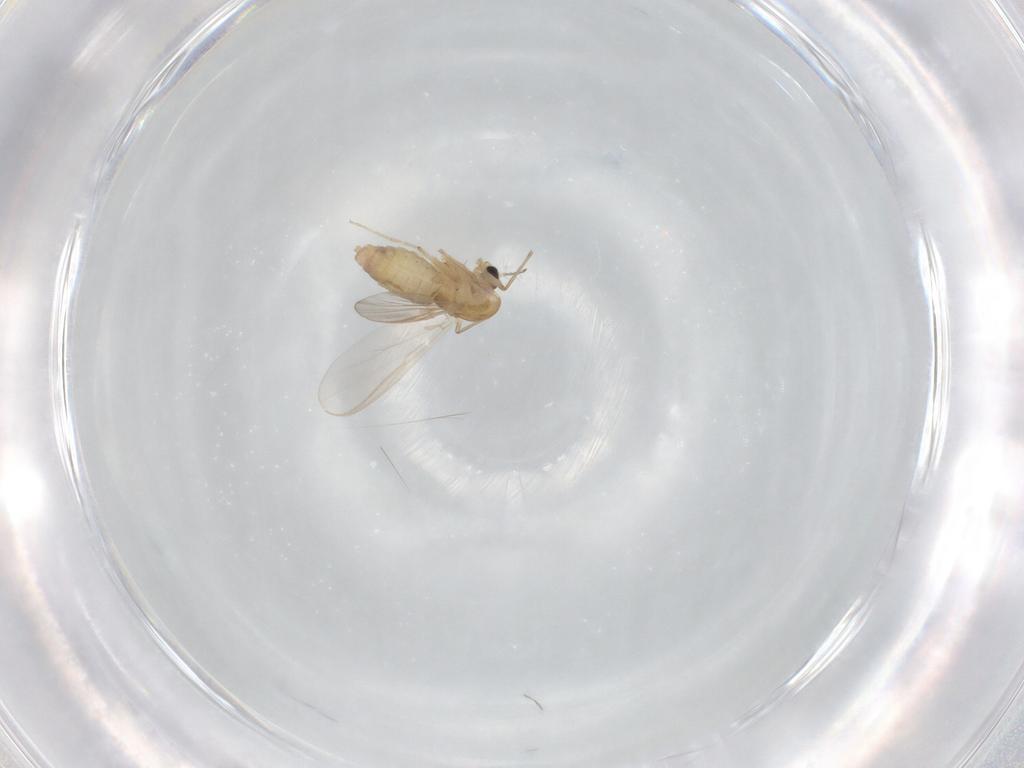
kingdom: Animalia
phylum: Arthropoda
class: Insecta
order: Diptera
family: Chironomidae
